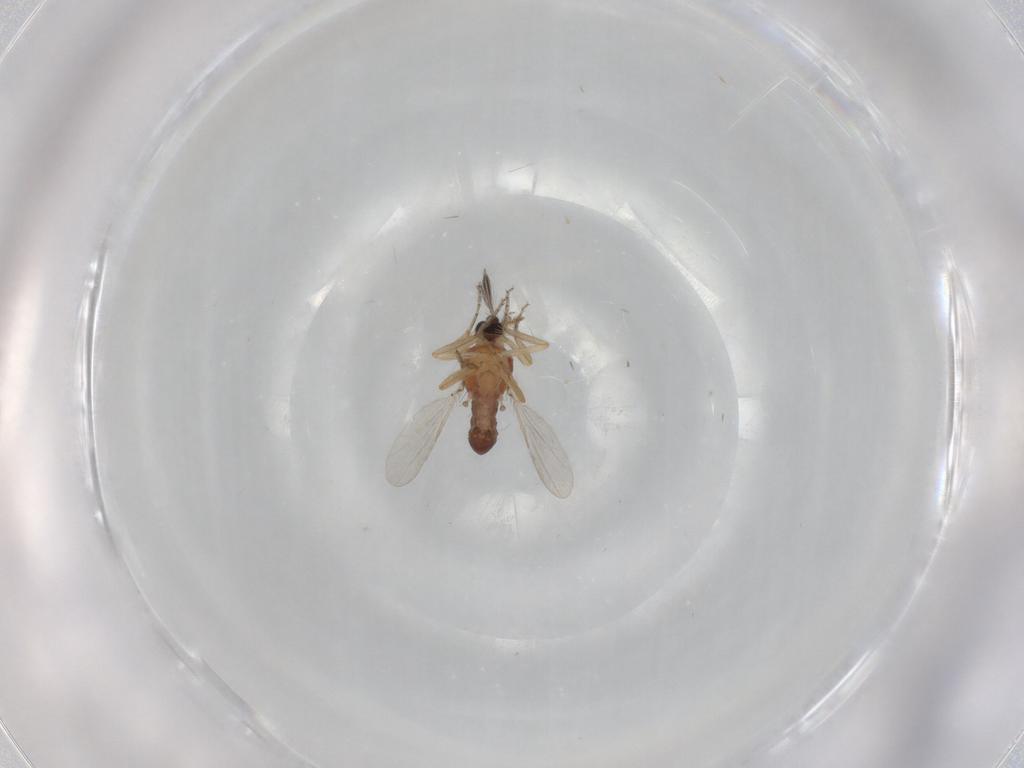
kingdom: Animalia
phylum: Arthropoda
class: Insecta
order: Diptera
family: Ceratopogonidae
